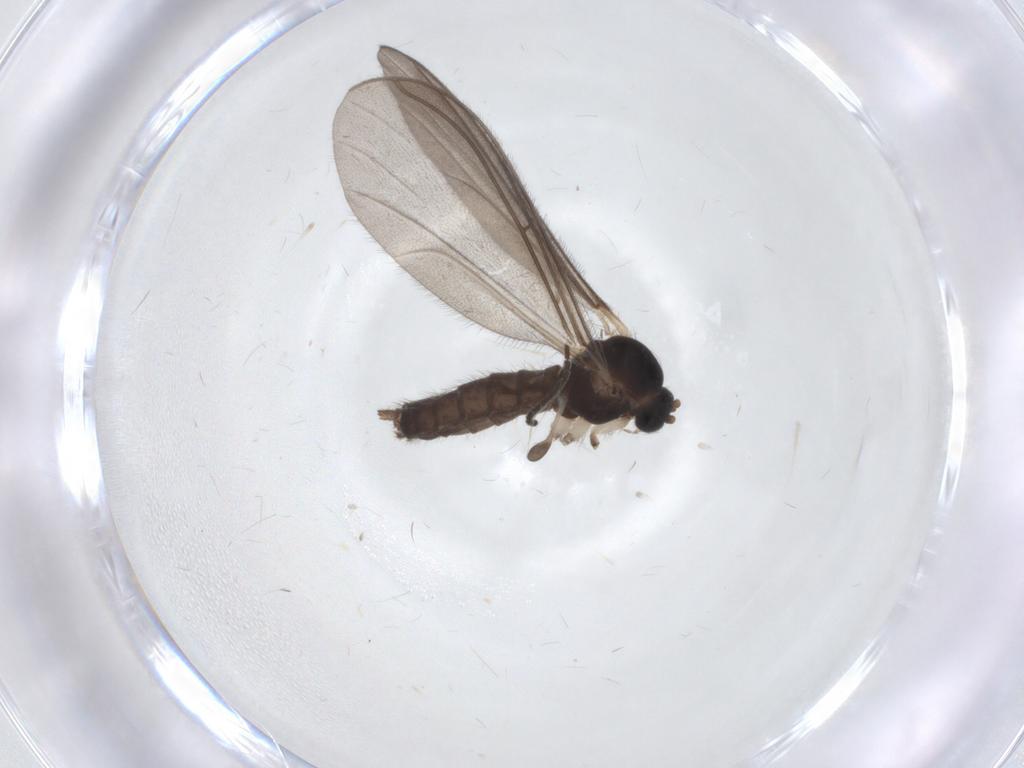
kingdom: Animalia
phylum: Arthropoda
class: Insecta
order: Diptera
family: Mycetophilidae
